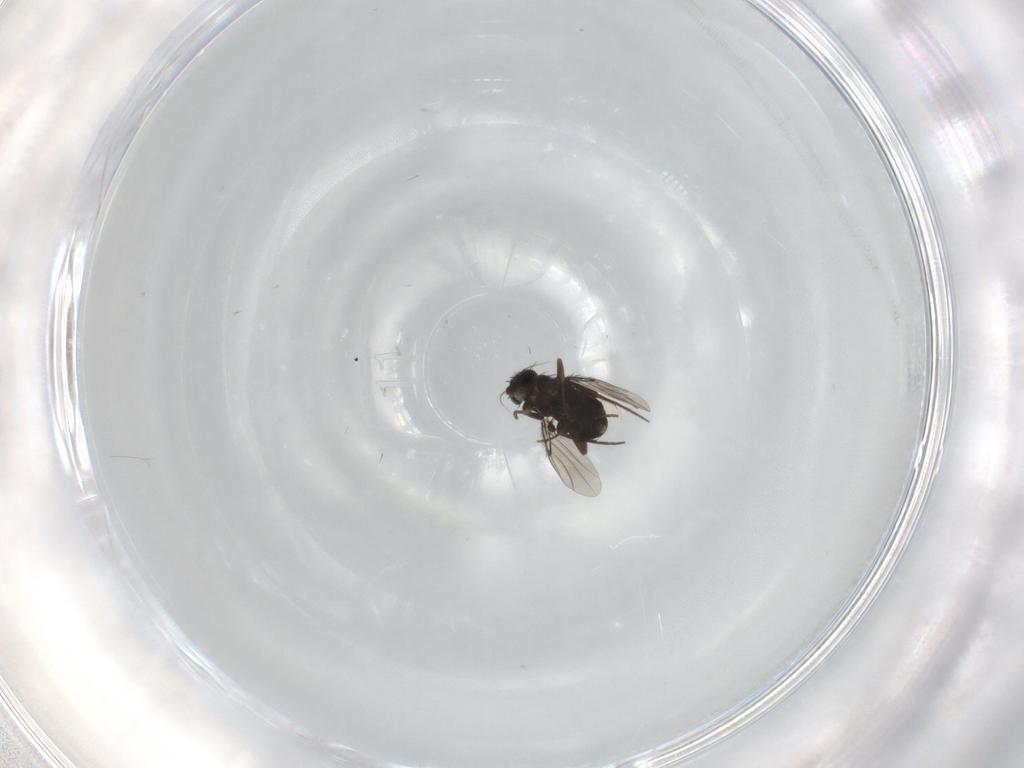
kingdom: Animalia
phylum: Arthropoda
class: Insecta
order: Diptera
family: Phoridae
